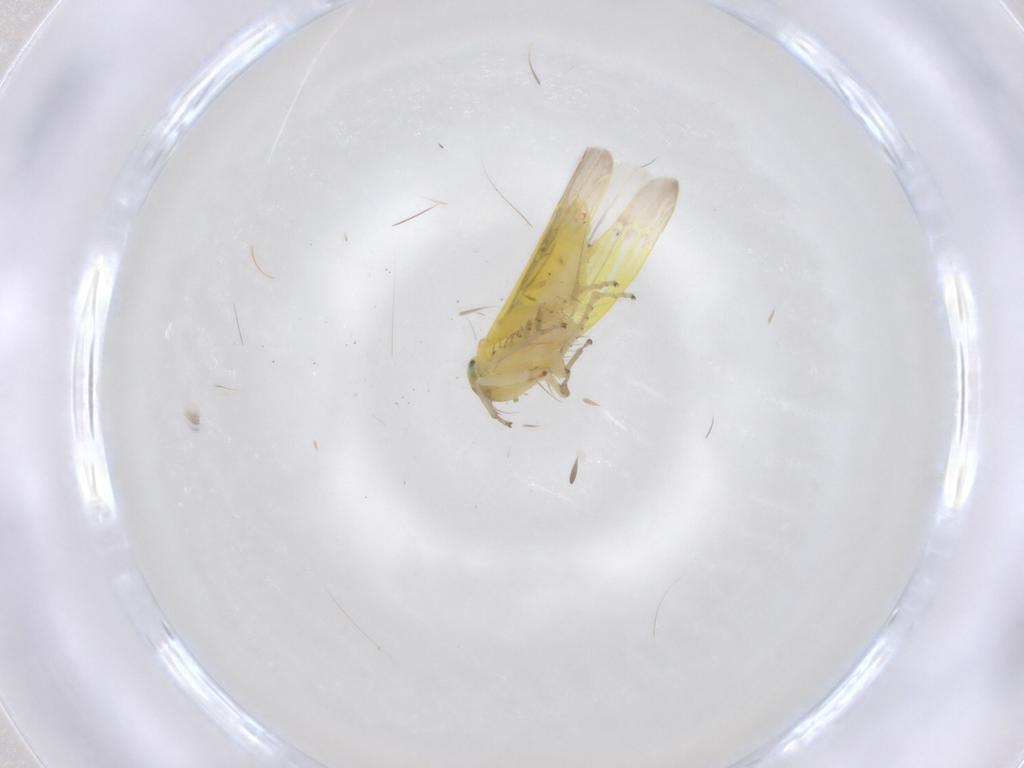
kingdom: Animalia
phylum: Arthropoda
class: Insecta
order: Hemiptera
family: Cicadellidae
